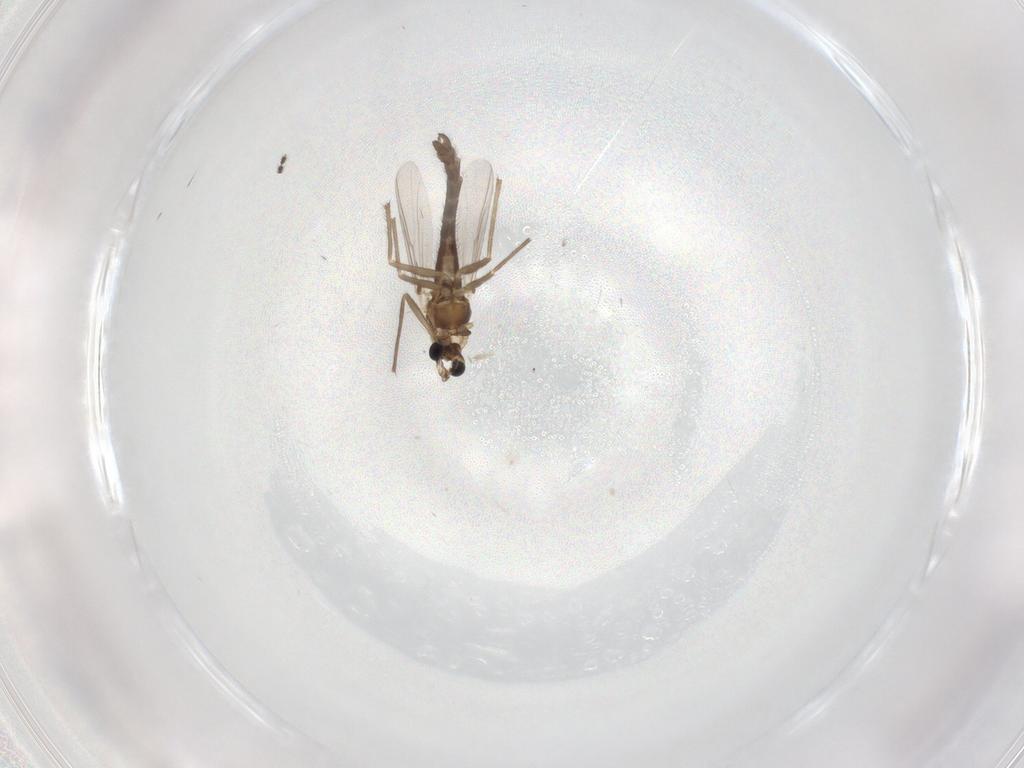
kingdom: Animalia
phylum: Arthropoda
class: Insecta
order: Diptera
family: Chironomidae
